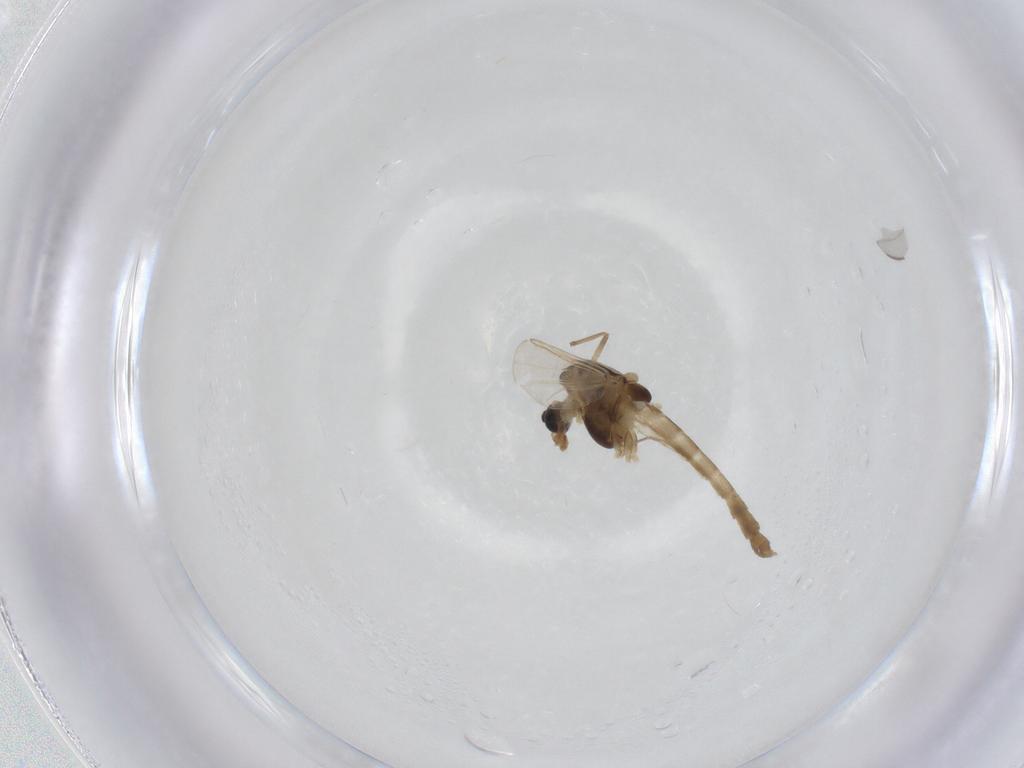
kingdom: Animalia
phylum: Arthropoda
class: Insecta
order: Diptera
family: Chironomidae
